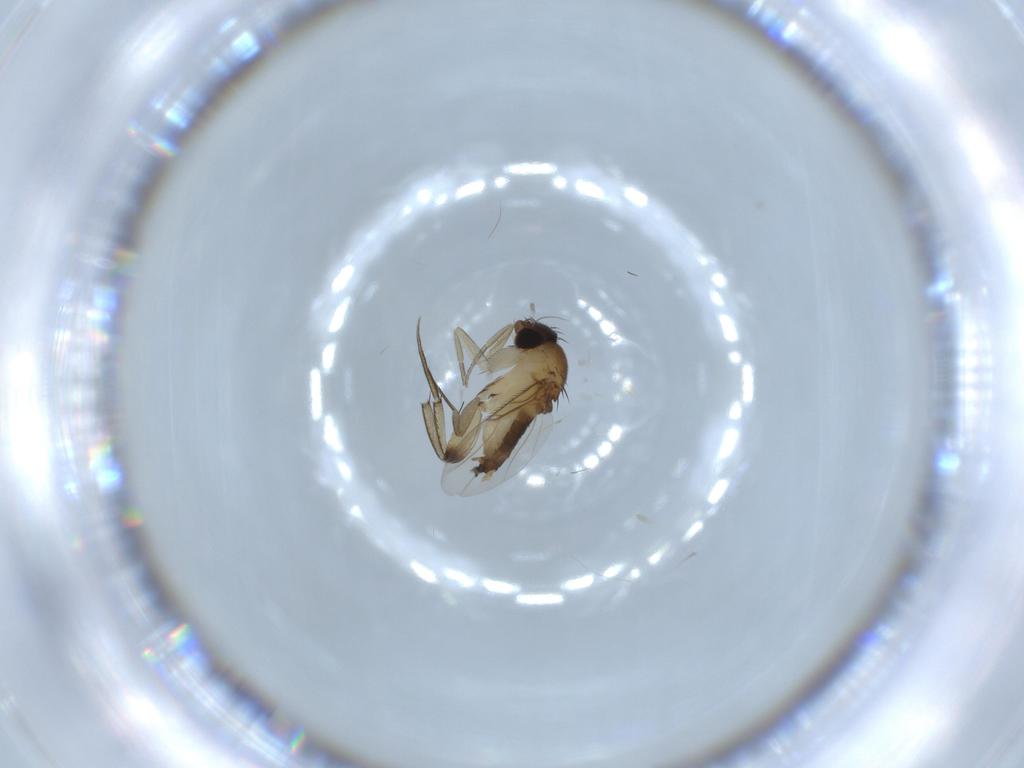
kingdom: Animalia
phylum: Arthropoda
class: Insecta
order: Diptera
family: Phoridae
